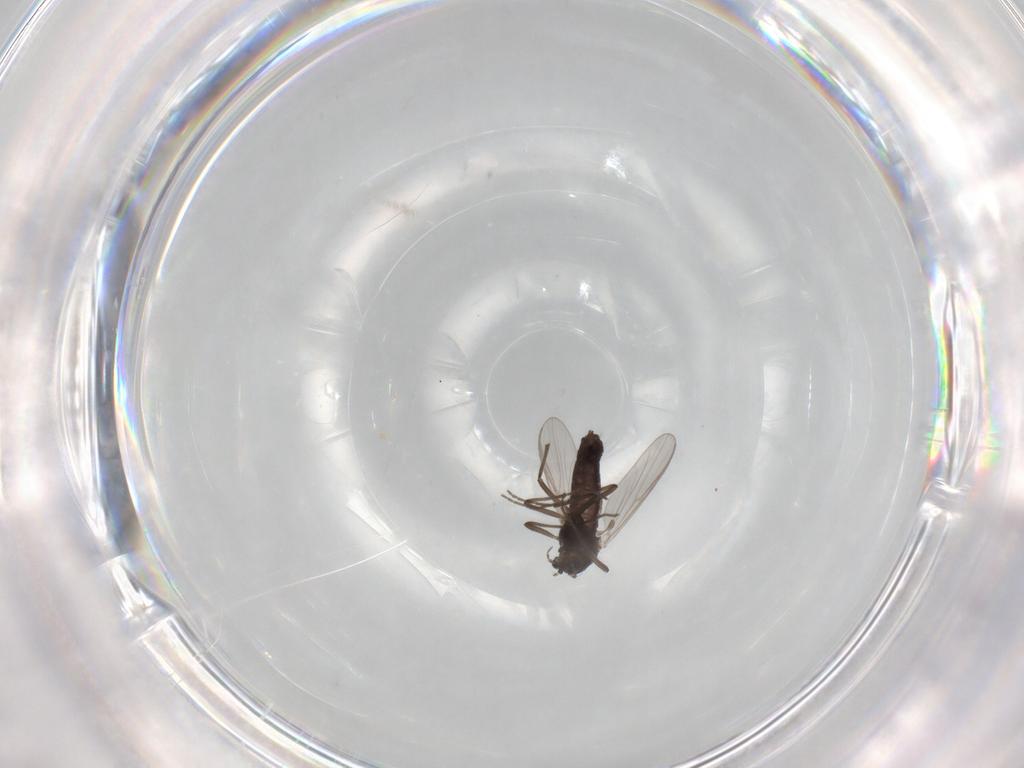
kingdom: Animalia
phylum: Arthropoda
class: Insecta
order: Diptera
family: Chironomidae
